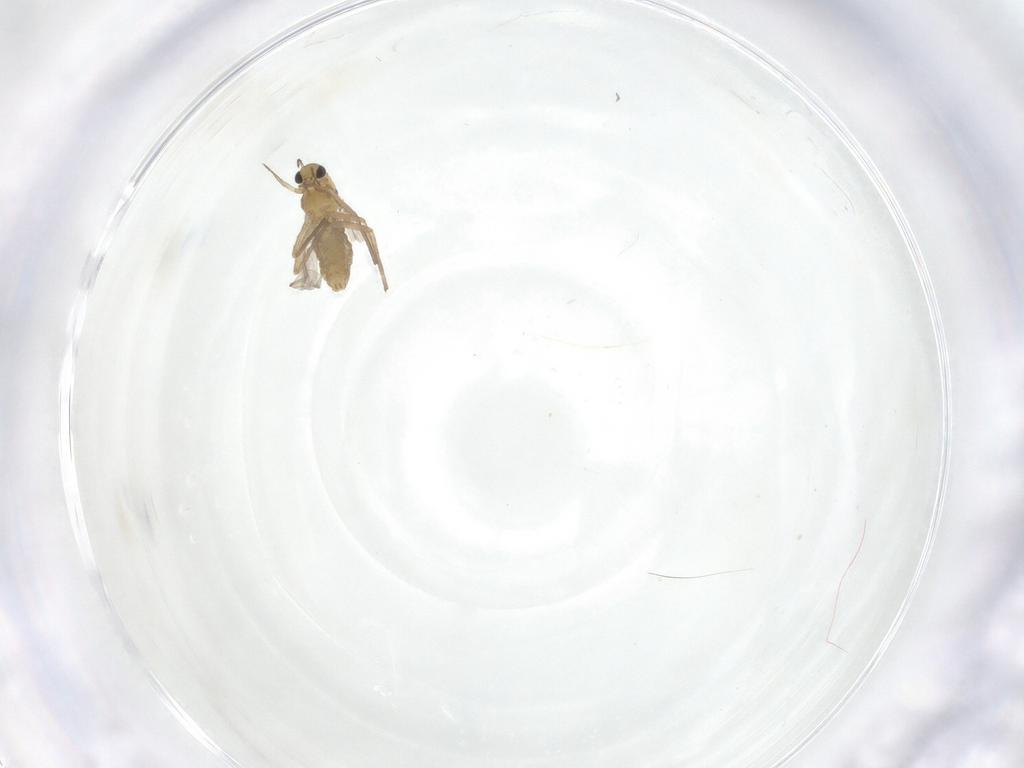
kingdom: Animalia
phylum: Arthropoda
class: Insecta
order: Diptera
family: Chironomidae
